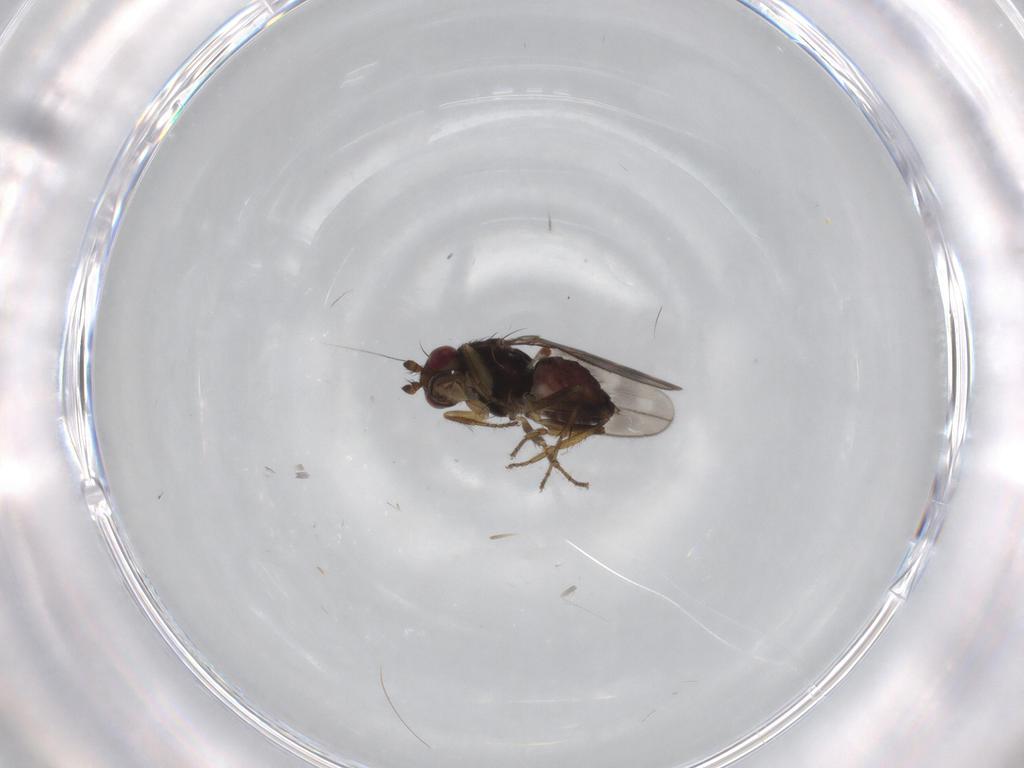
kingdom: Animalia
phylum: Arthropoda
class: Insecta
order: Diptera
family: Sphaeroceridae
